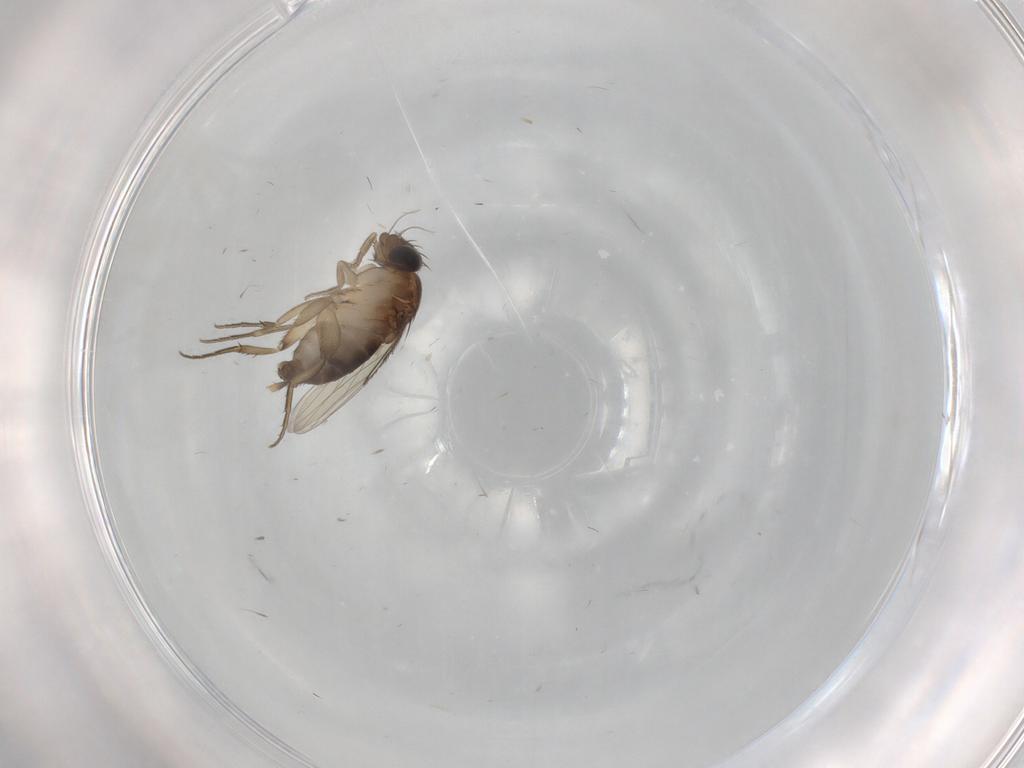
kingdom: Animalia
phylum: Arthropoda
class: Insecta
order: Diptera
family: Phoridae
